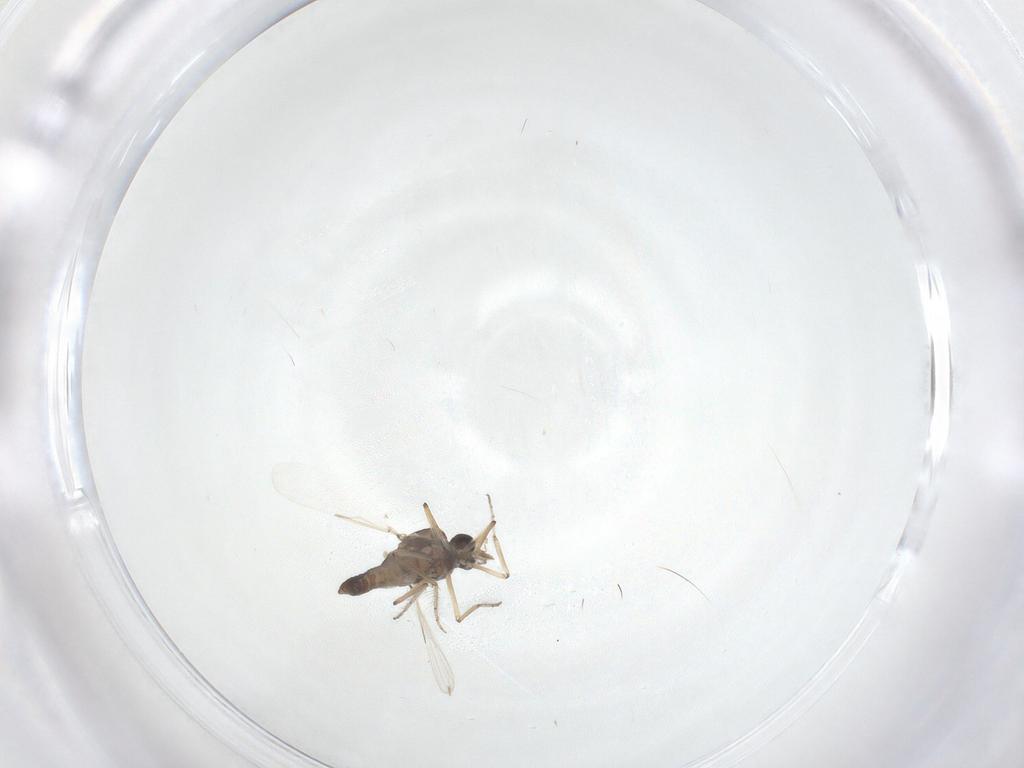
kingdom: Animalia
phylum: Arthropoda
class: Insecta
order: Diptera
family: Ceratopogonidae
